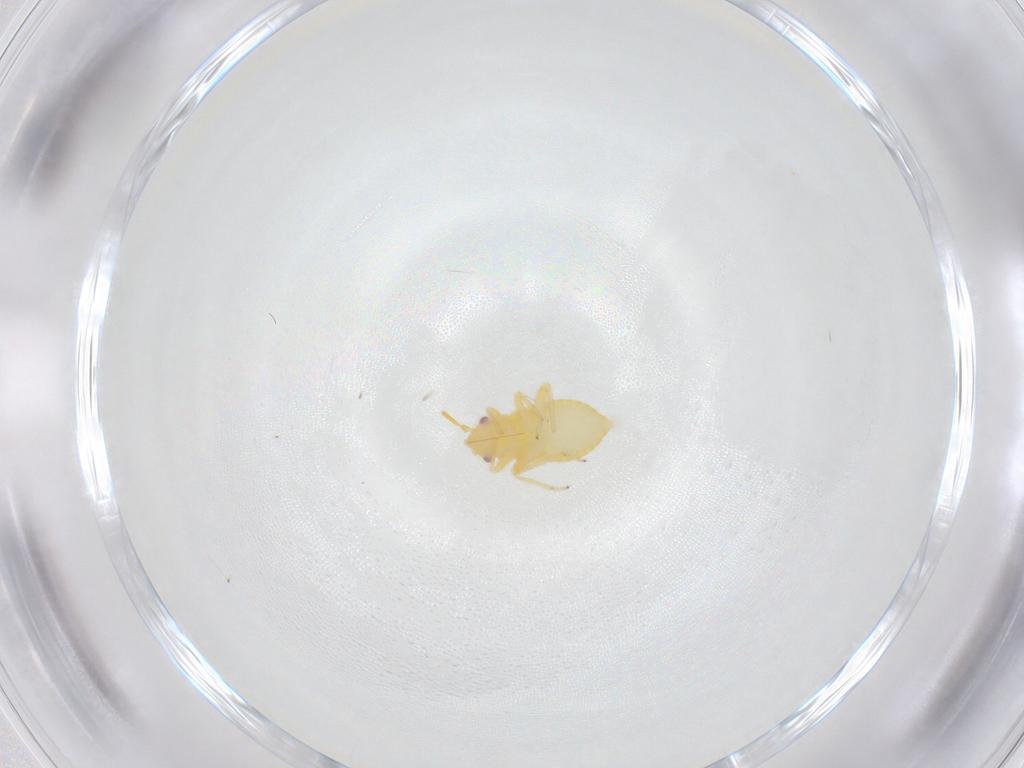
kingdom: Animalia
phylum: Arthropoda
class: Insecta
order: Hemiptera
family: Miridae
